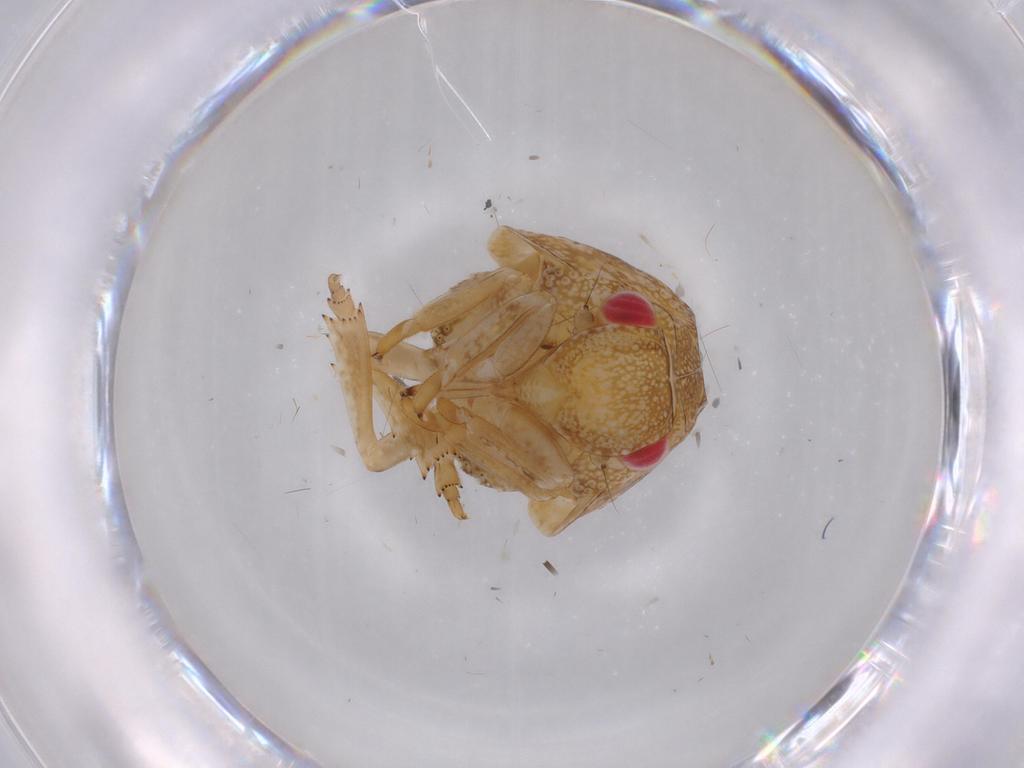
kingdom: Animalia
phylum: Arthropoda
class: Insecta
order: Hemiptera
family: Acanaloniidae
